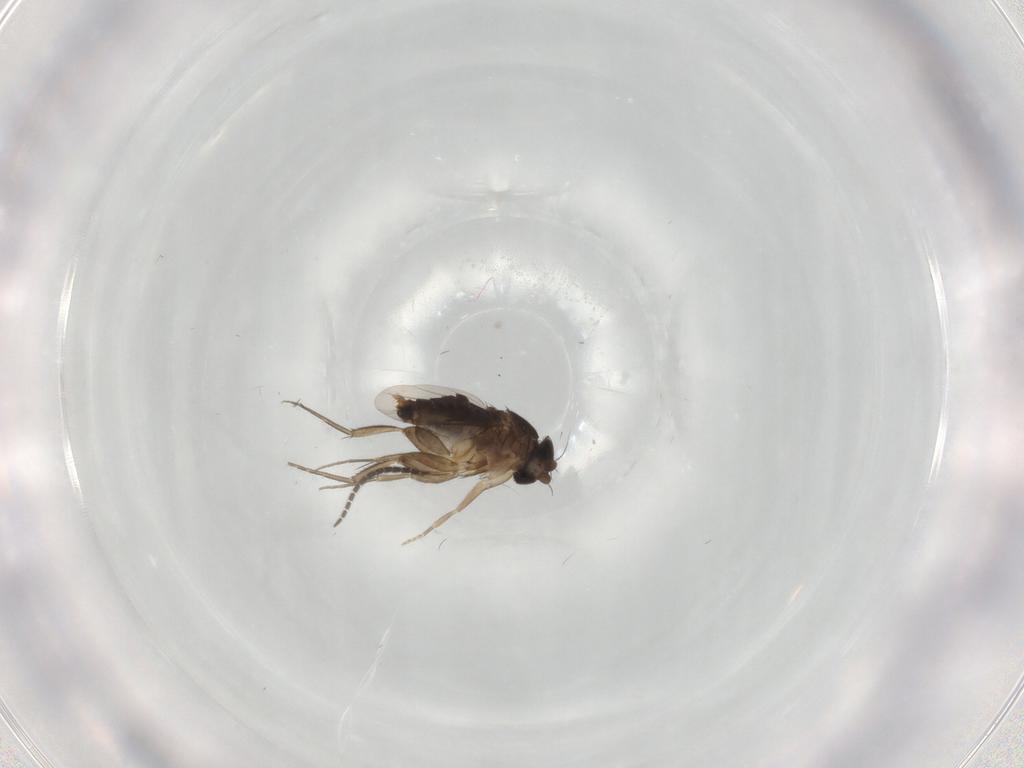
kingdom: Animalia
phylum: Arthropoda
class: Insecta
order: Diptera
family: Phoridae
